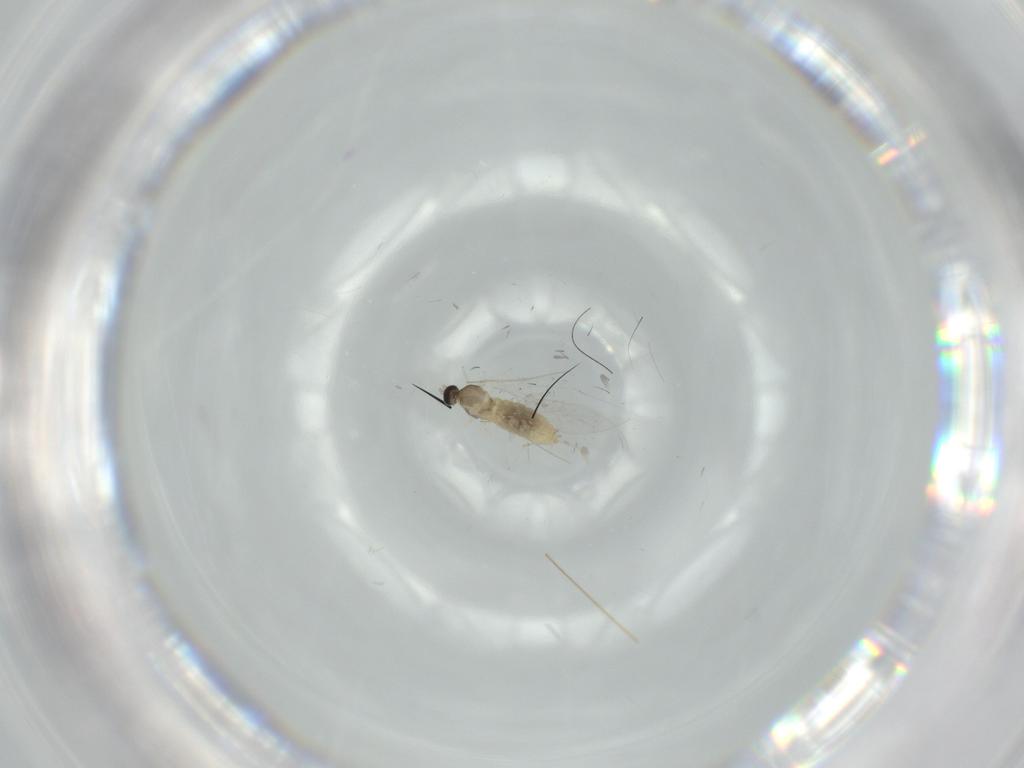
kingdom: Animalia
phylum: Arthropoda
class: Insecta
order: Diptera
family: Cecidomyiidae
